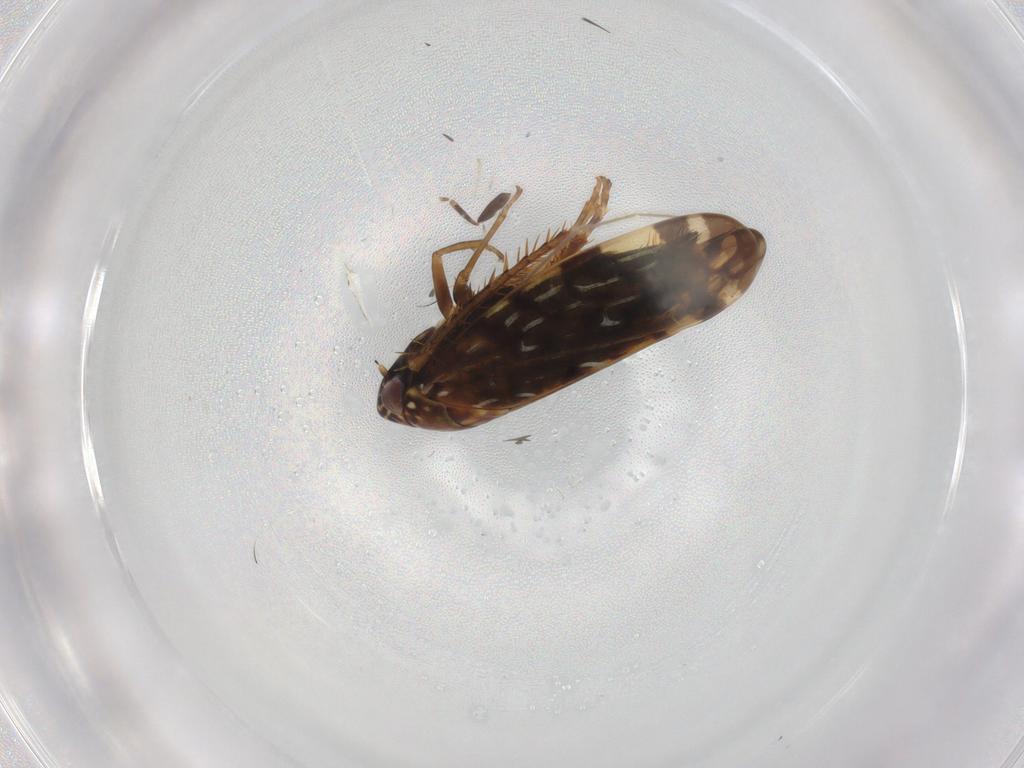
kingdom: Animalia
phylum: Arthropoda
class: Insecta
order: Hemiptera
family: Cicadellidae
